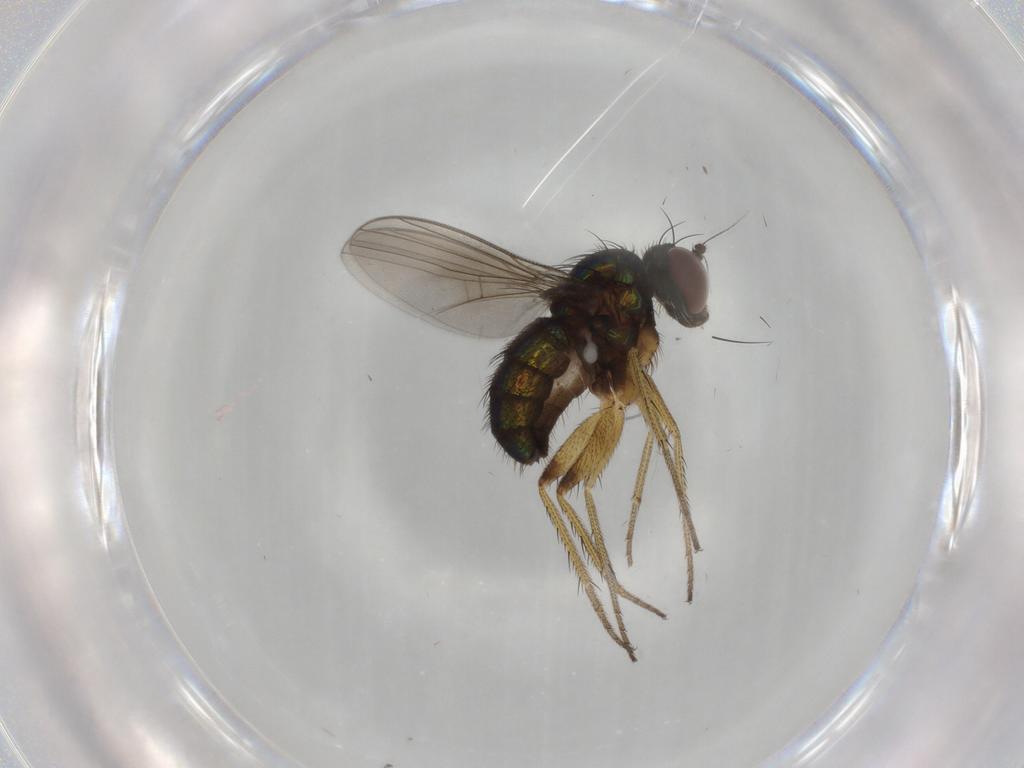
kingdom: Animalia
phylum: Arthropoda
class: Insecta
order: Diptera
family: Dolichopodidae
